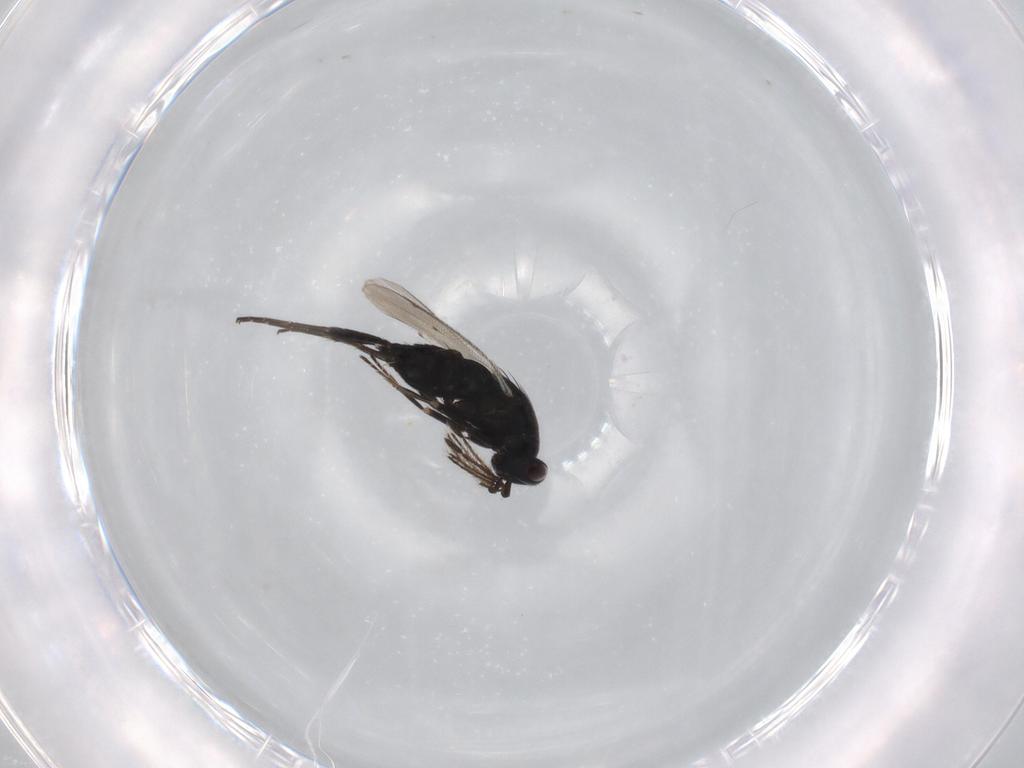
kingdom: Animalia
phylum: Arthropoda
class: Insecta
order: Hymenoptera
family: Eulophidae
